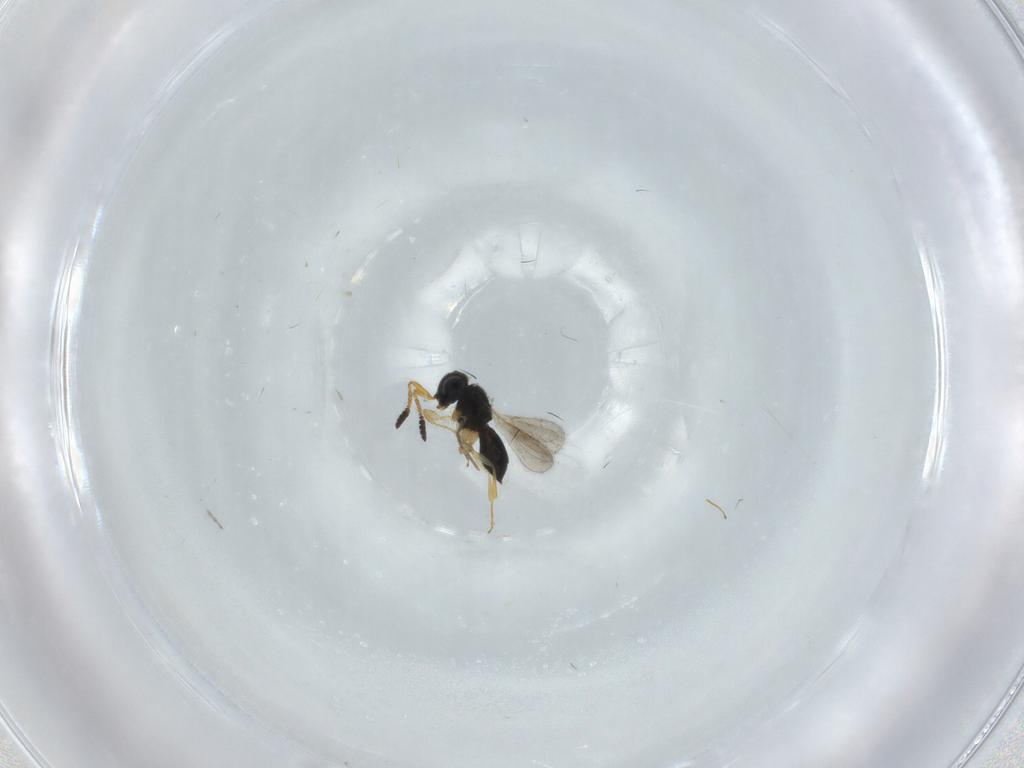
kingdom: Animalia
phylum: Arthropoda
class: Insecta
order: Hymenoptera
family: Scelionidae
